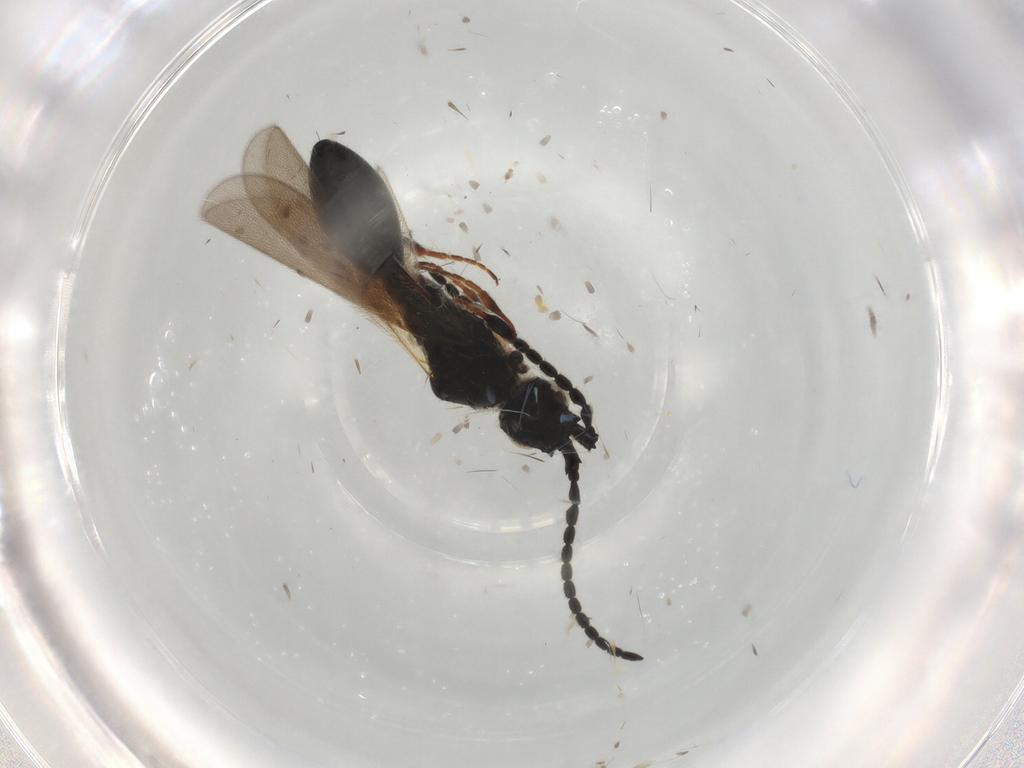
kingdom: Animalia
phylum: Arthropoda
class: Insecta
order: Hymenoptera
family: Diapriidae
